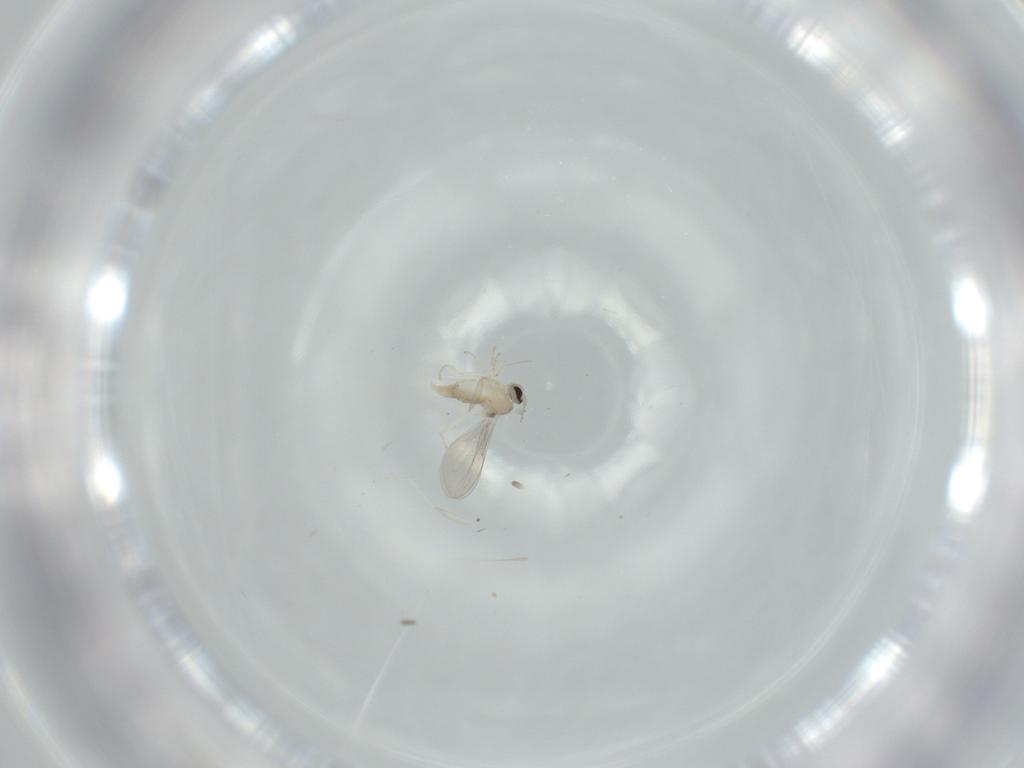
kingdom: Animalia
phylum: Arthropoda
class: Insecta
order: Diptera
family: Cecidomyiidae
